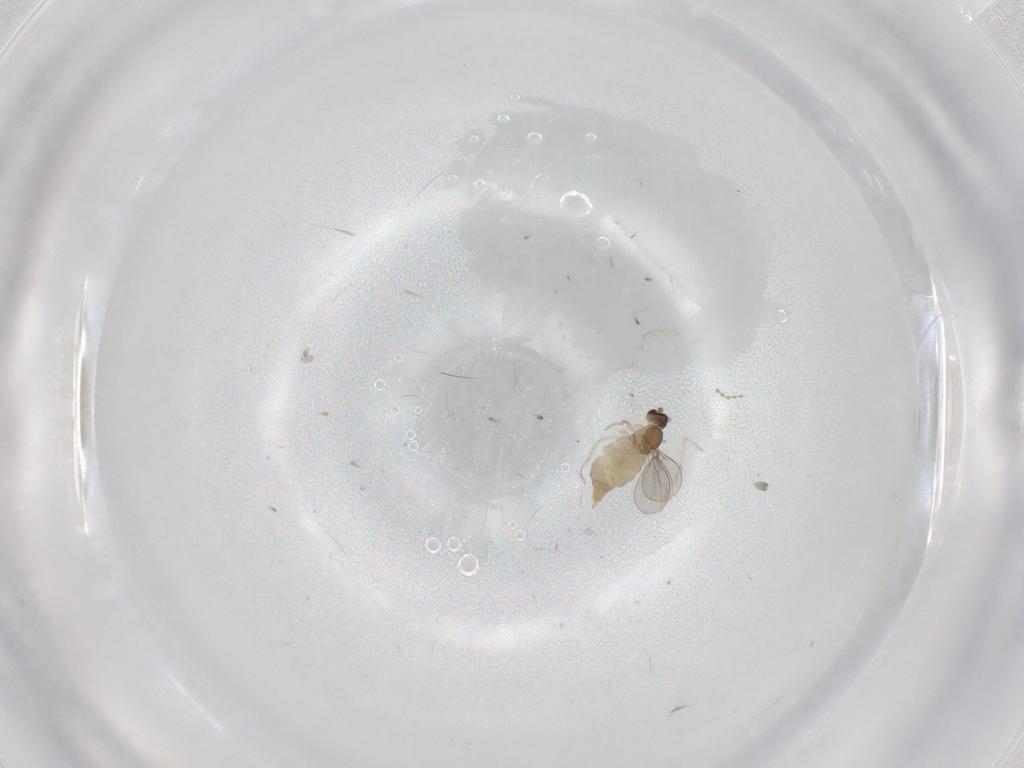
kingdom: Animalia
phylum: Arthropoda
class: Insecta
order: Diptera
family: Cecidomyiidae
